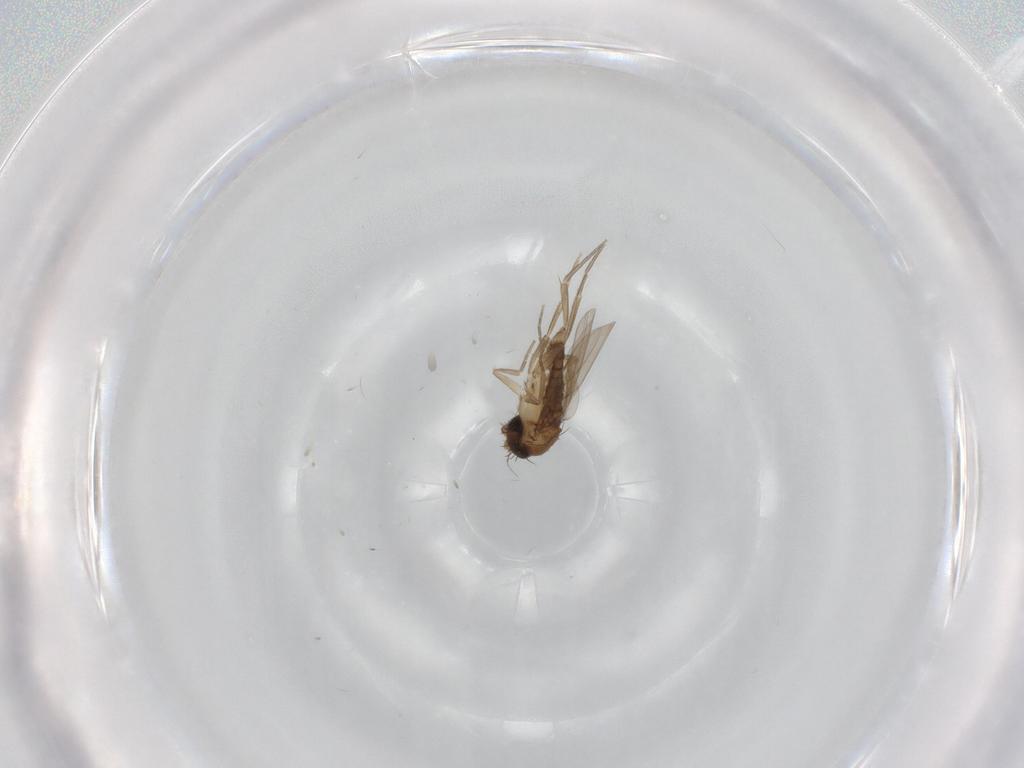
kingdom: Animalia
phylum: Arthropoda
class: Insecta
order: Diptera
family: Phoridae
